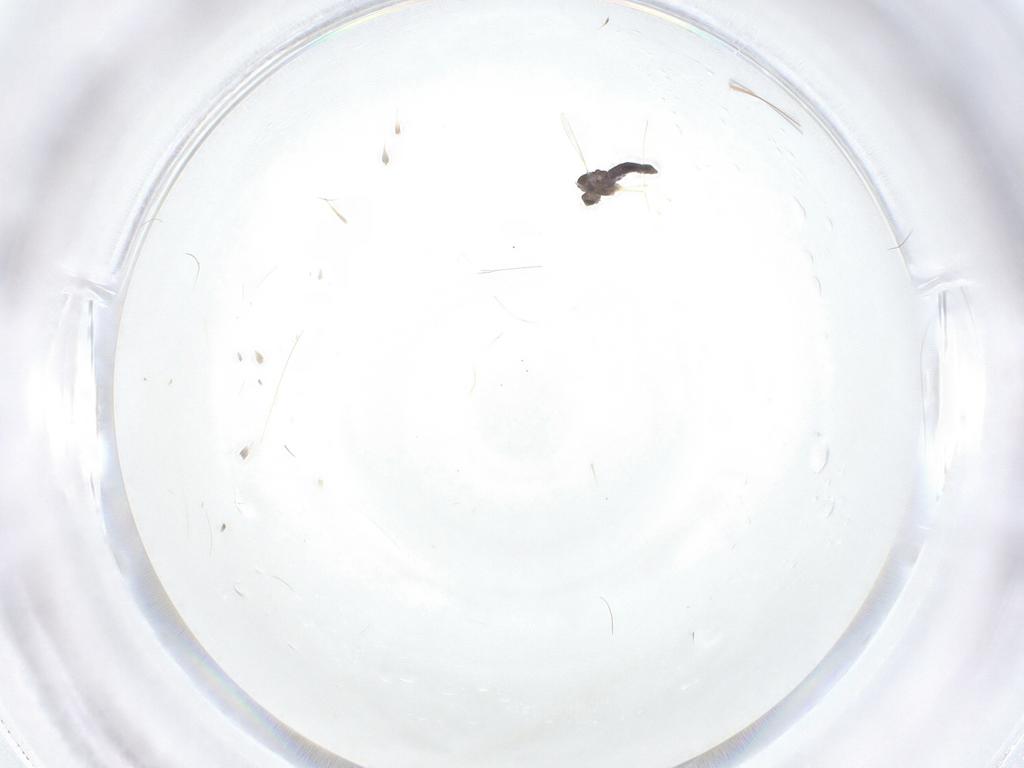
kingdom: Animalia
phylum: Arthropoda
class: Insecta
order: Diptera
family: Chironomidae
